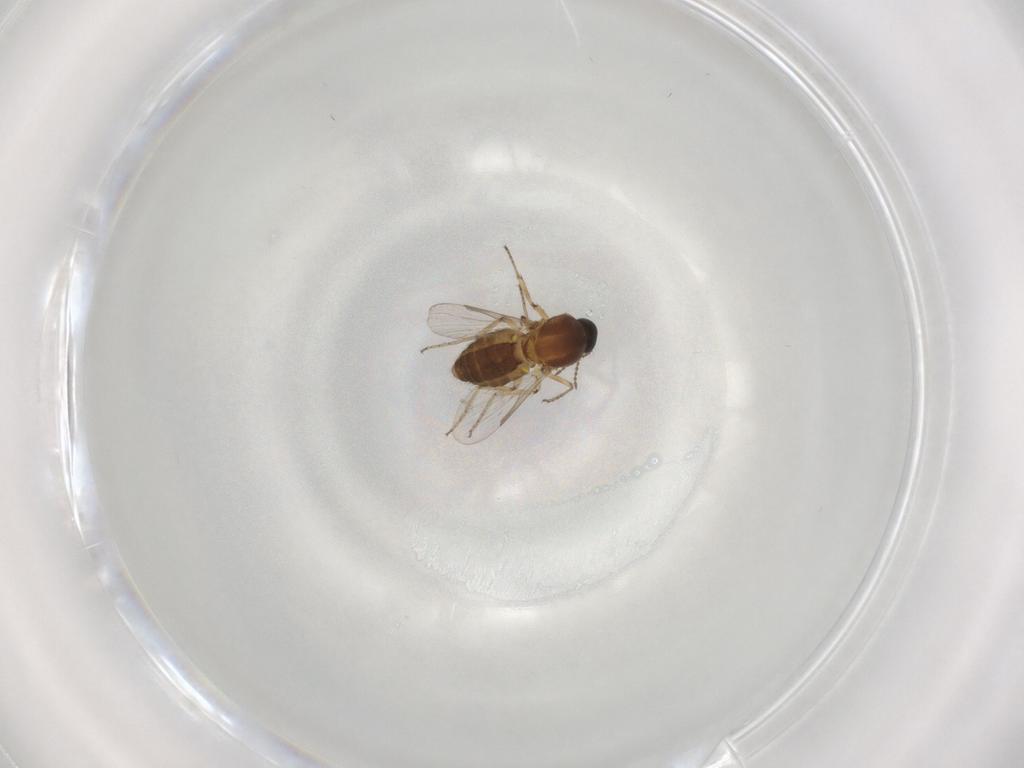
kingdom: Animalia
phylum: Arthropoda
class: Insecta
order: Diptera
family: Ceratopogonidae
